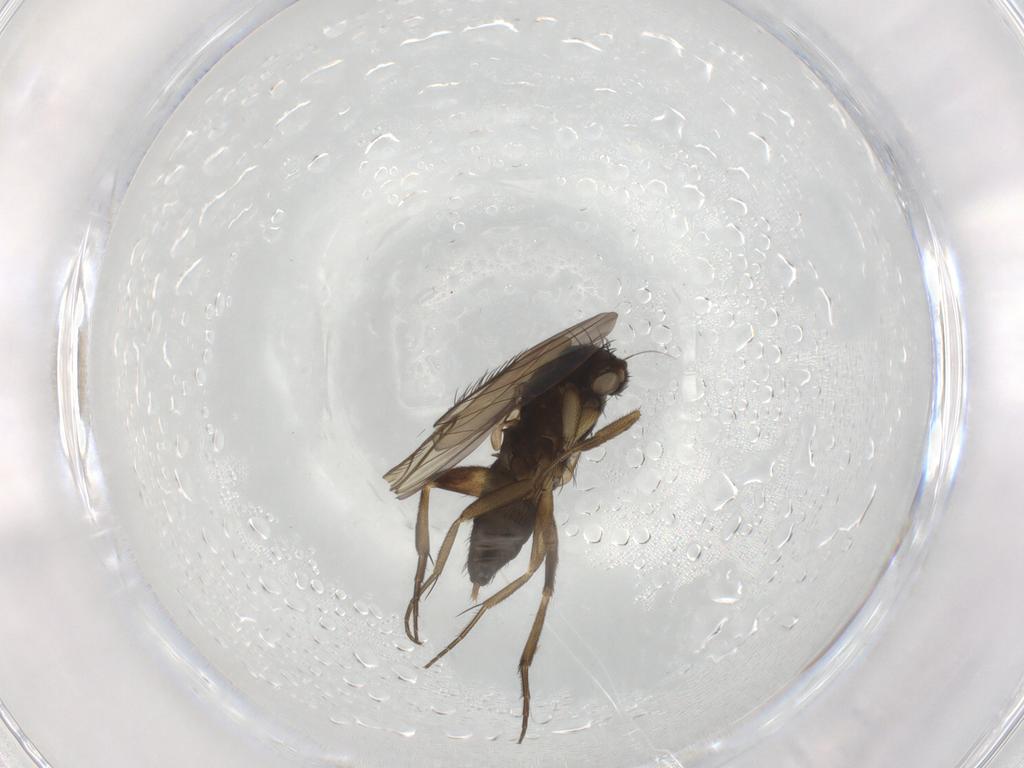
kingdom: Animalia
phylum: Arthropoda
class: Insecta
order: Diptera
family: Phoridae
